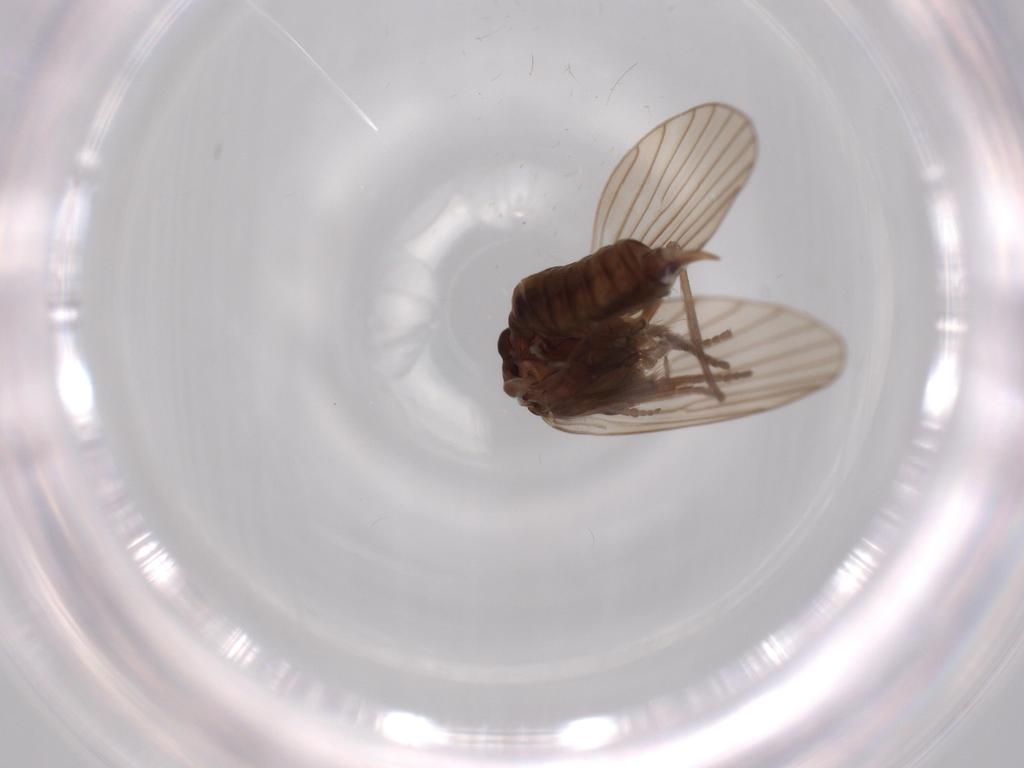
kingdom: Animalia
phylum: Arthropoda
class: Insecta
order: Diptera
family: Psychodidae
